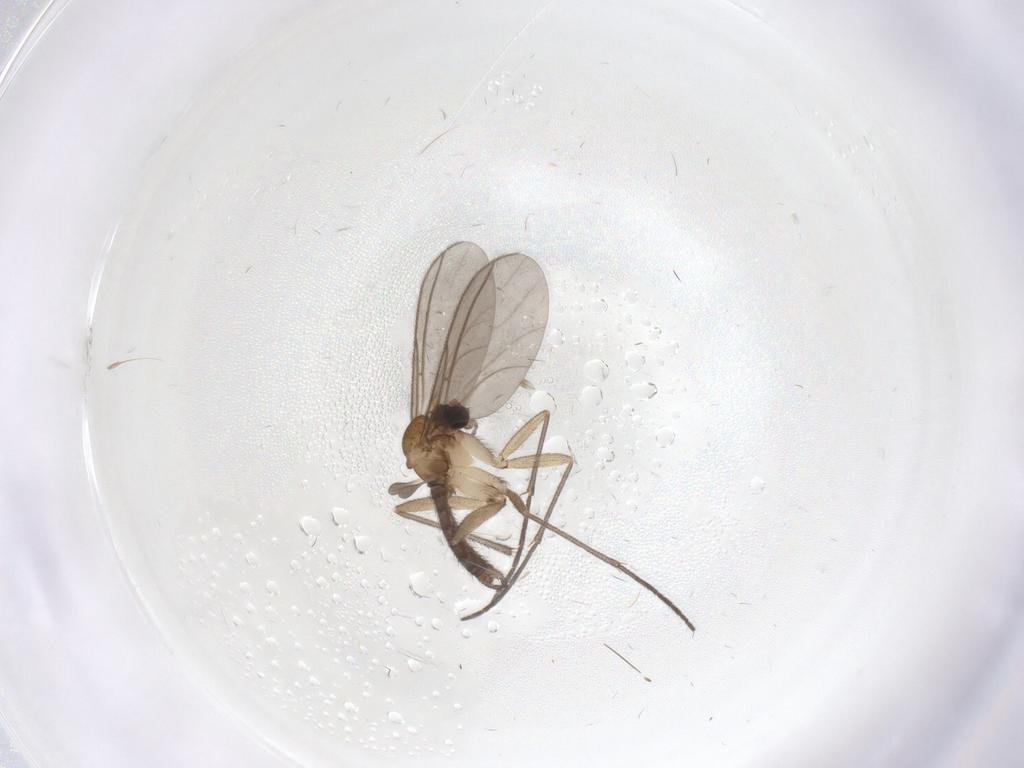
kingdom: Animalia
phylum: Arthropoda
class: Insecta
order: Diptera
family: Sciaridae
